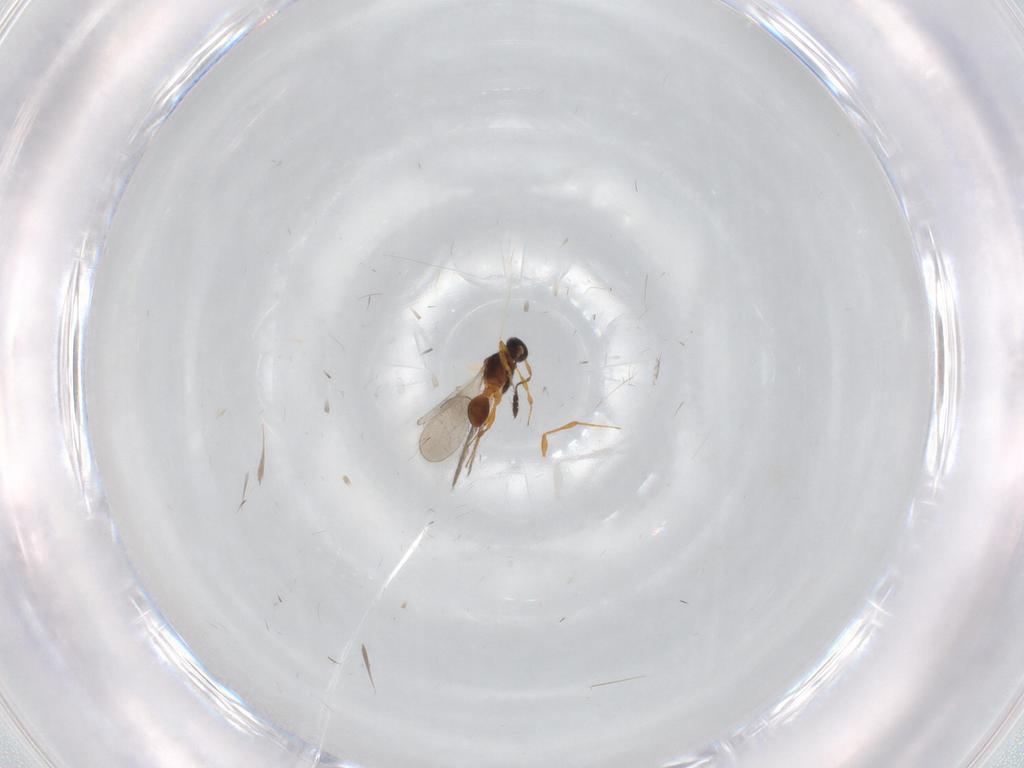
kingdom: Animalia
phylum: Arthropoda
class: Insecta
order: Hymenoptera
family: Platygastridae
